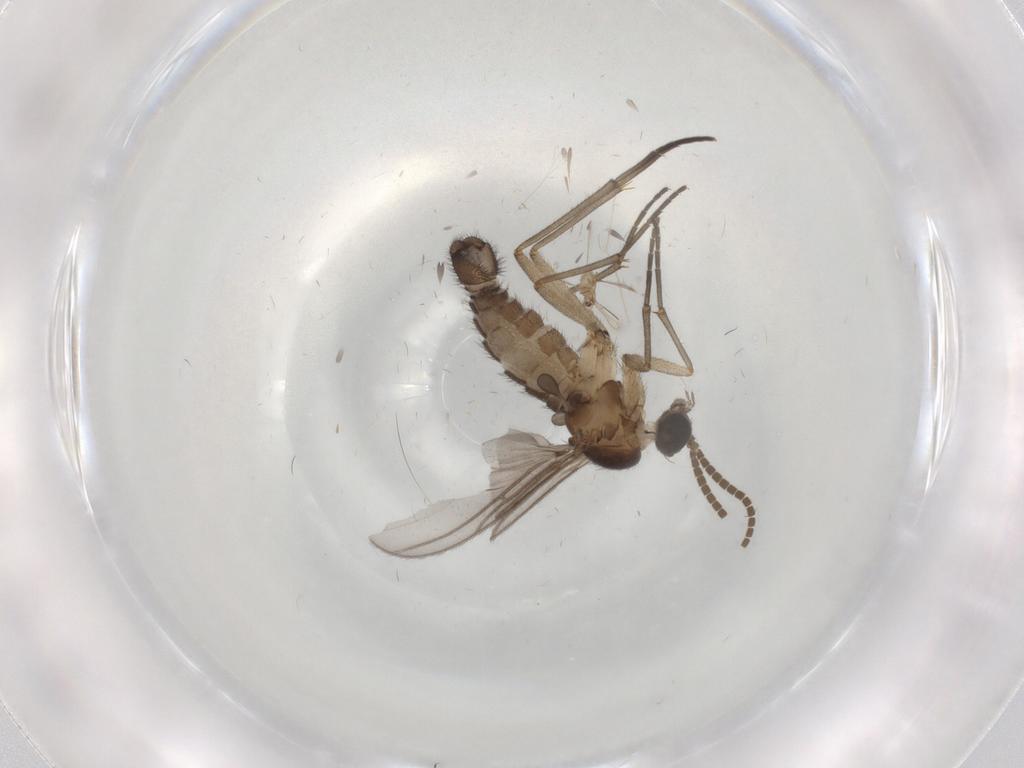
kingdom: Animalia
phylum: Arthropoda
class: Insecta
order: Diptera
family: Sciaridae
